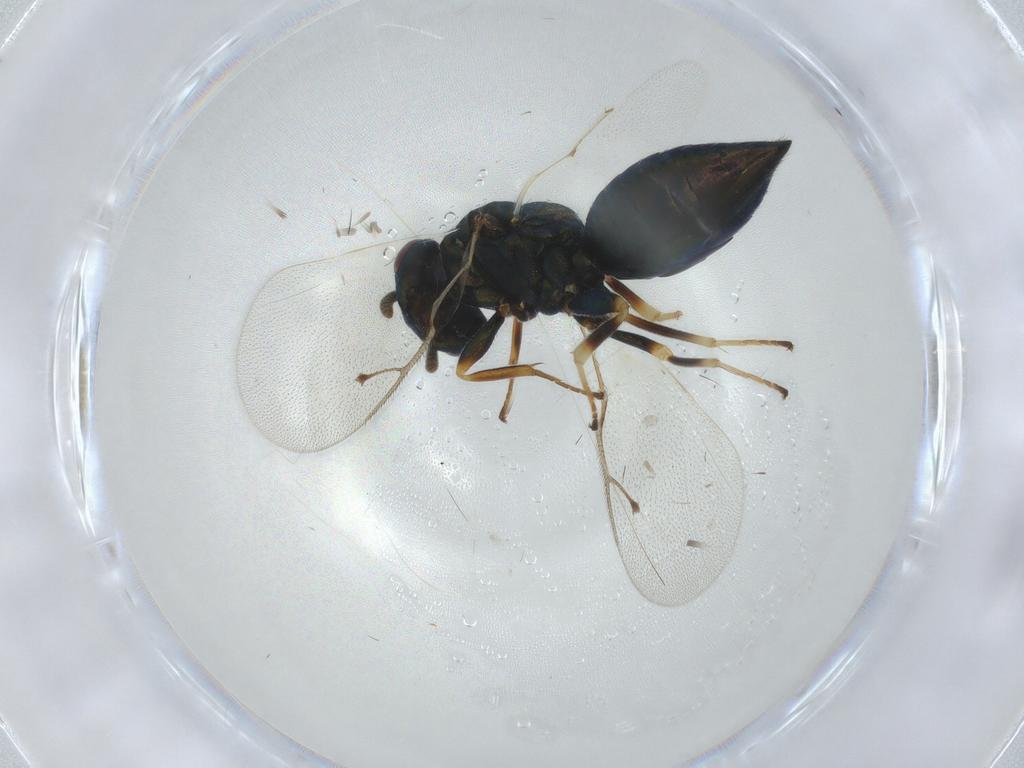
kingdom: Animalia
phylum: Arthropoda
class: Insecta
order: Hymenoptera
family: Pteromalidae
